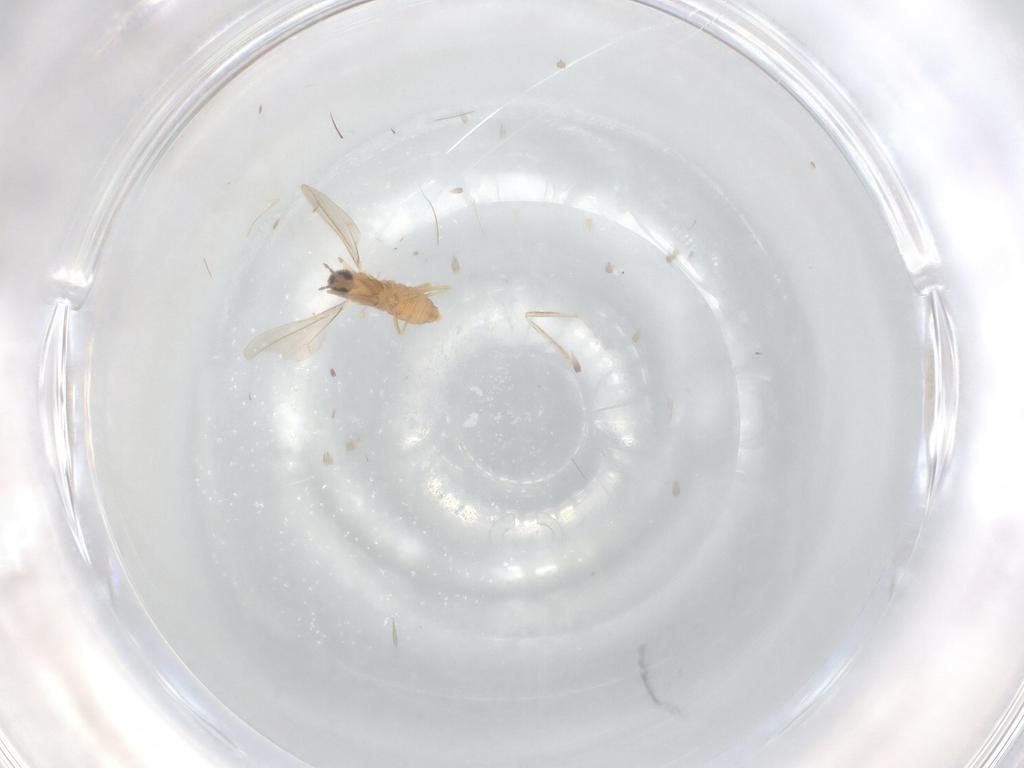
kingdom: Animalia
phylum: Arthropoda
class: Insecta
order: Diptera
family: Cecidomyiidae
